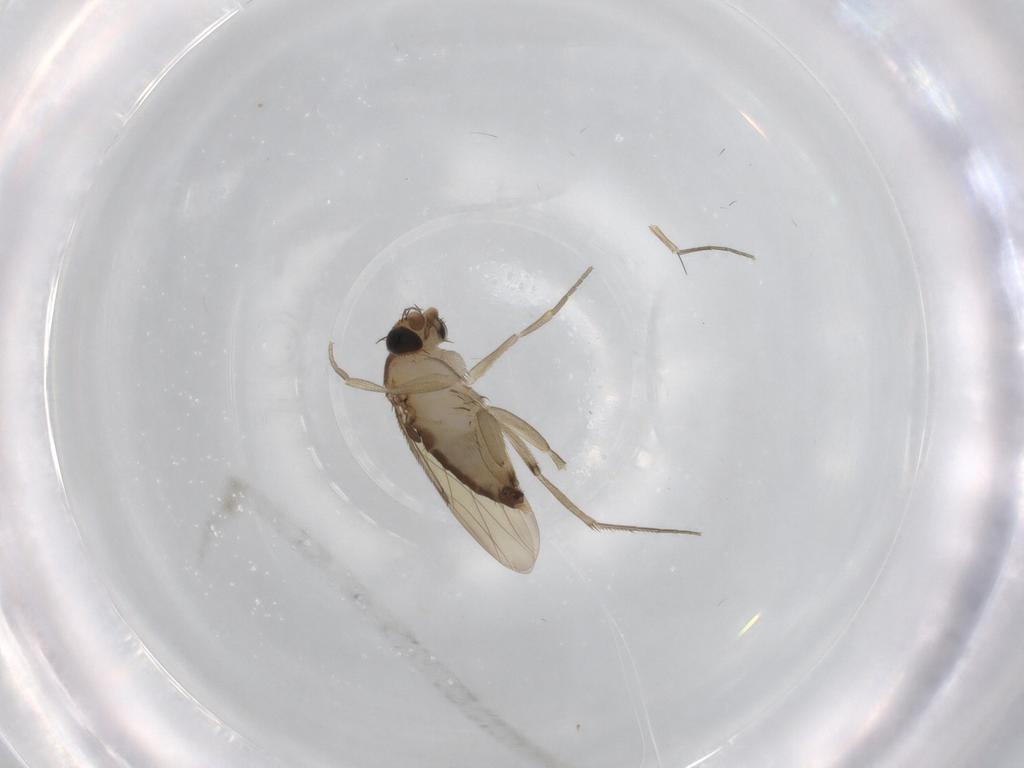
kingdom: Animalia
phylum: Arthropoda
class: Insecta
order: Diptera
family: Phoridae
